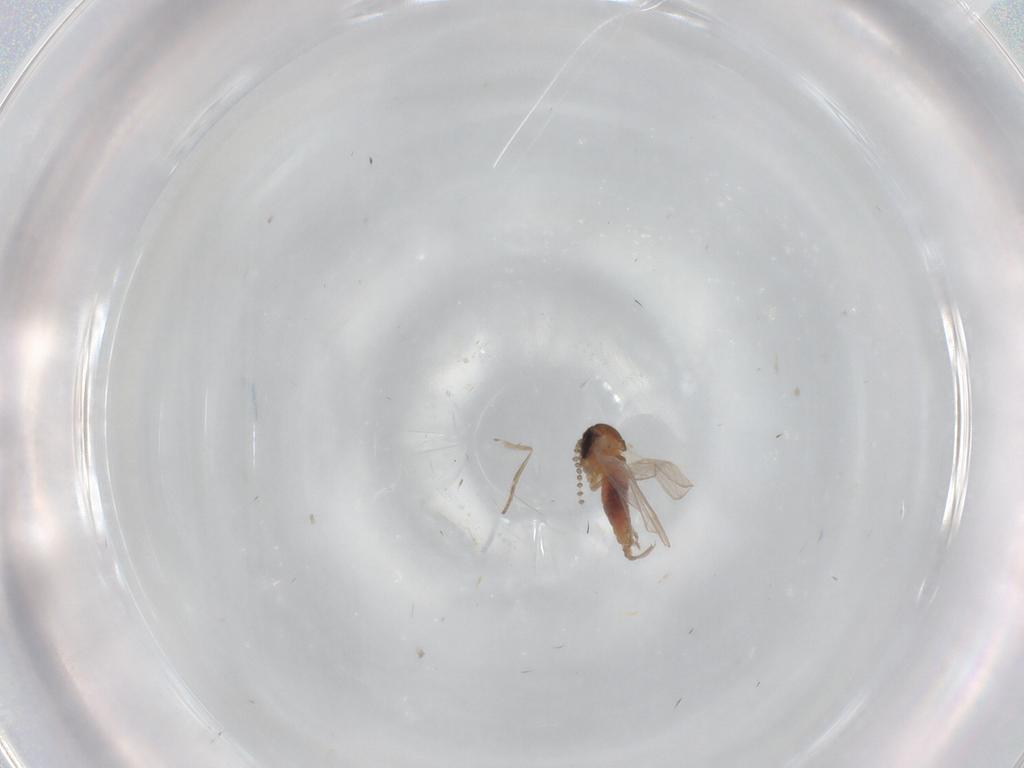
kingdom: Animalia
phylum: Arthropoda
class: Insecta
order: Diptera
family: Psychodidae
